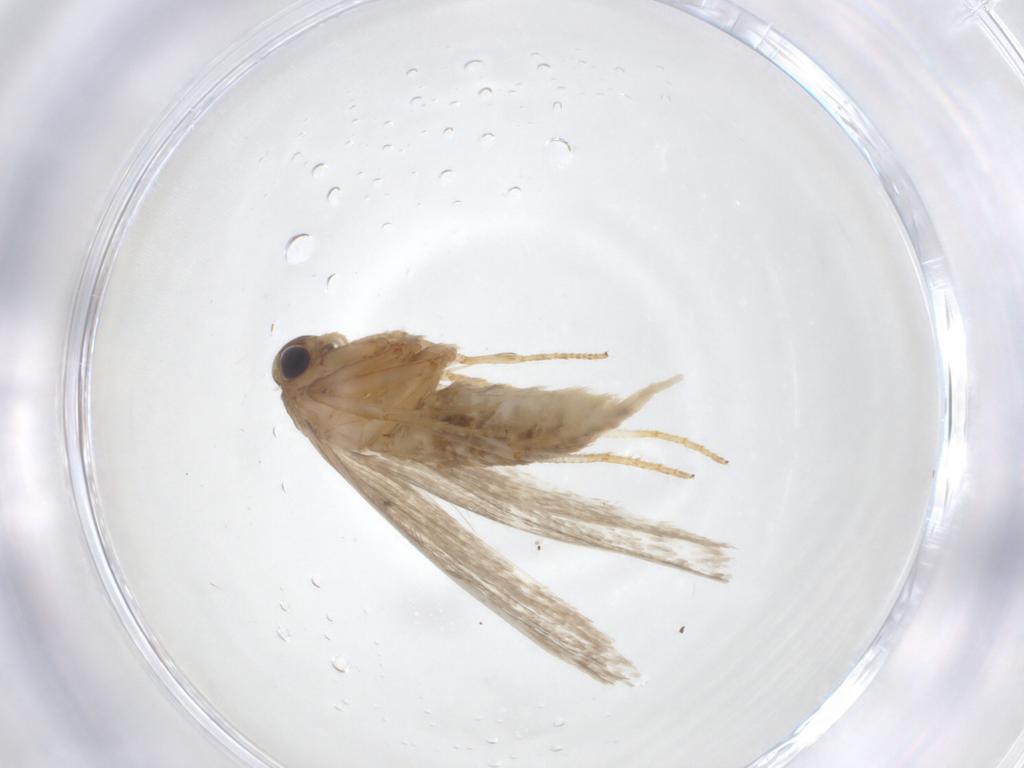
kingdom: Animalia
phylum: Arthropoda
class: Insecta
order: Lepidoptera
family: Blastobasidae
